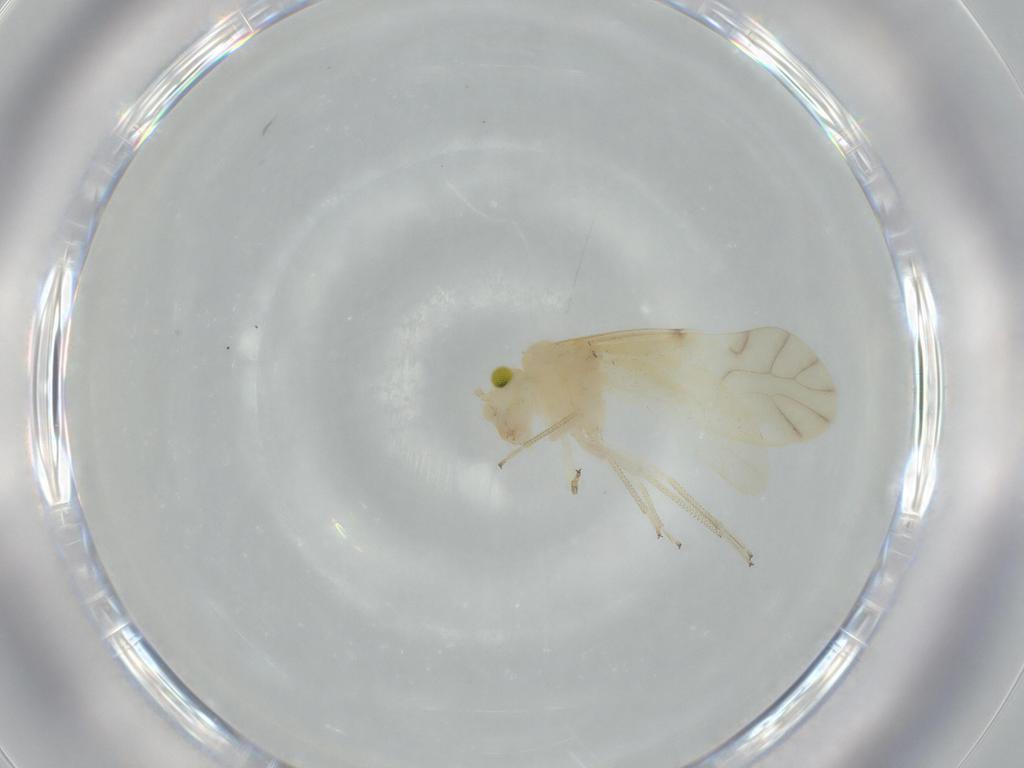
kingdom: Animalia
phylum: Arthropoda
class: Insecta
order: Psocodea
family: Caeciliusidae
